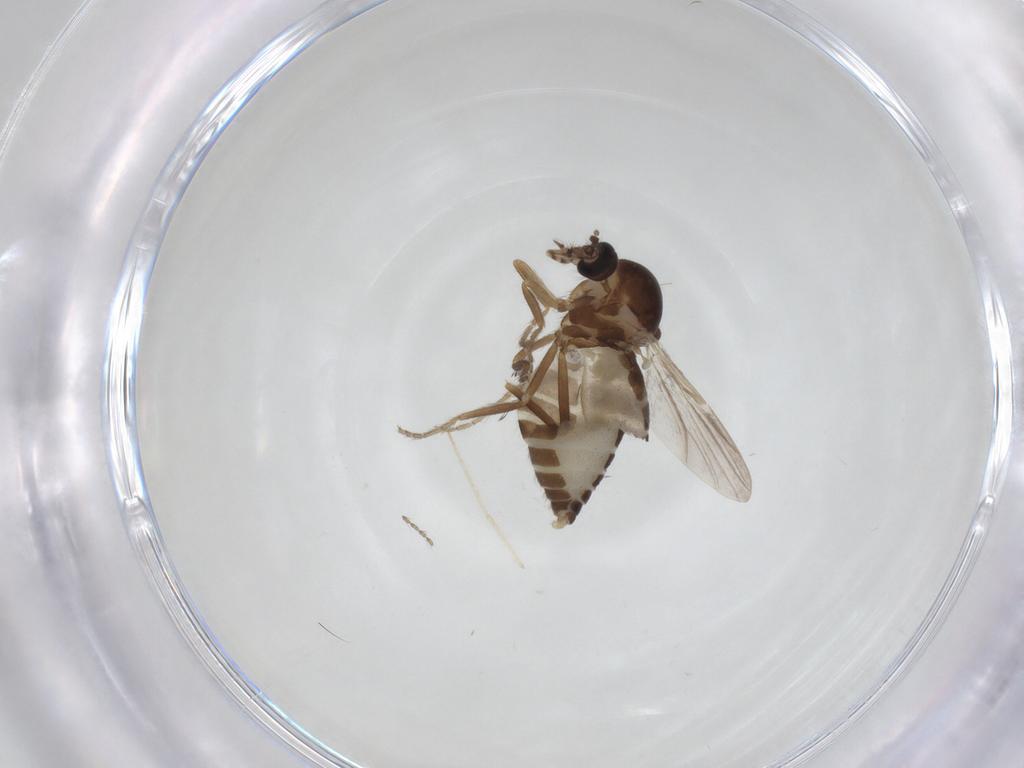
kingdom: Animalia
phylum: Arthropoda
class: Insecta
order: Diptera
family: Ceratopogonidae
